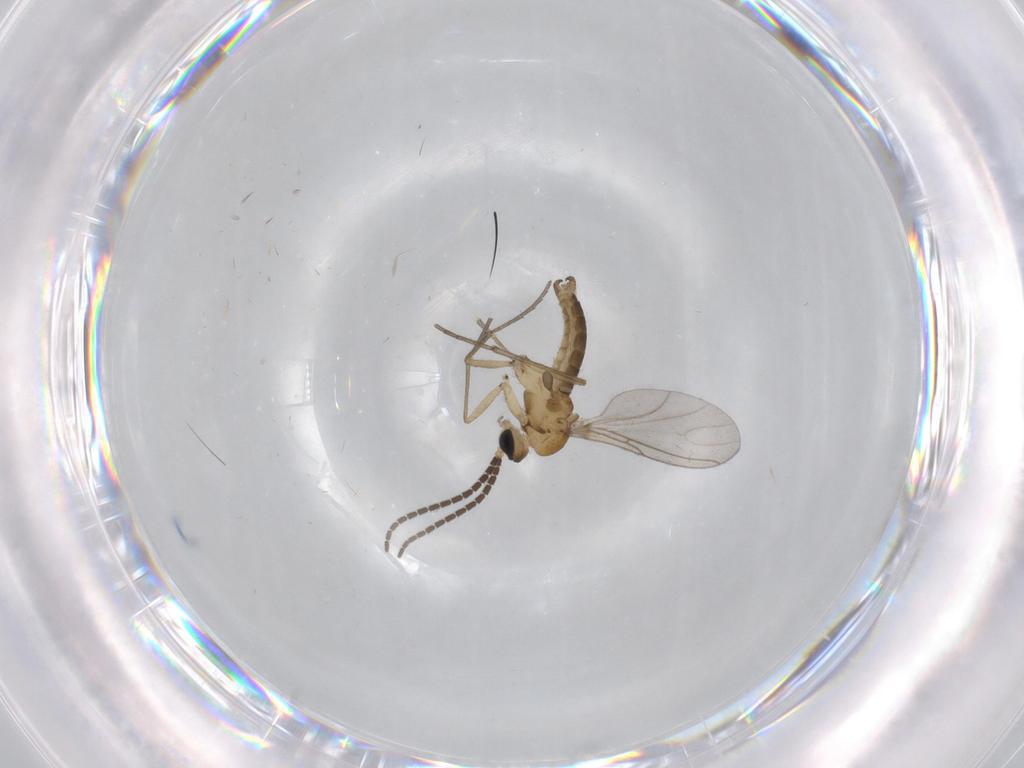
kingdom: Animalia
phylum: Arthropoda
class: Insecta
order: Diptera
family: Sciaridae
